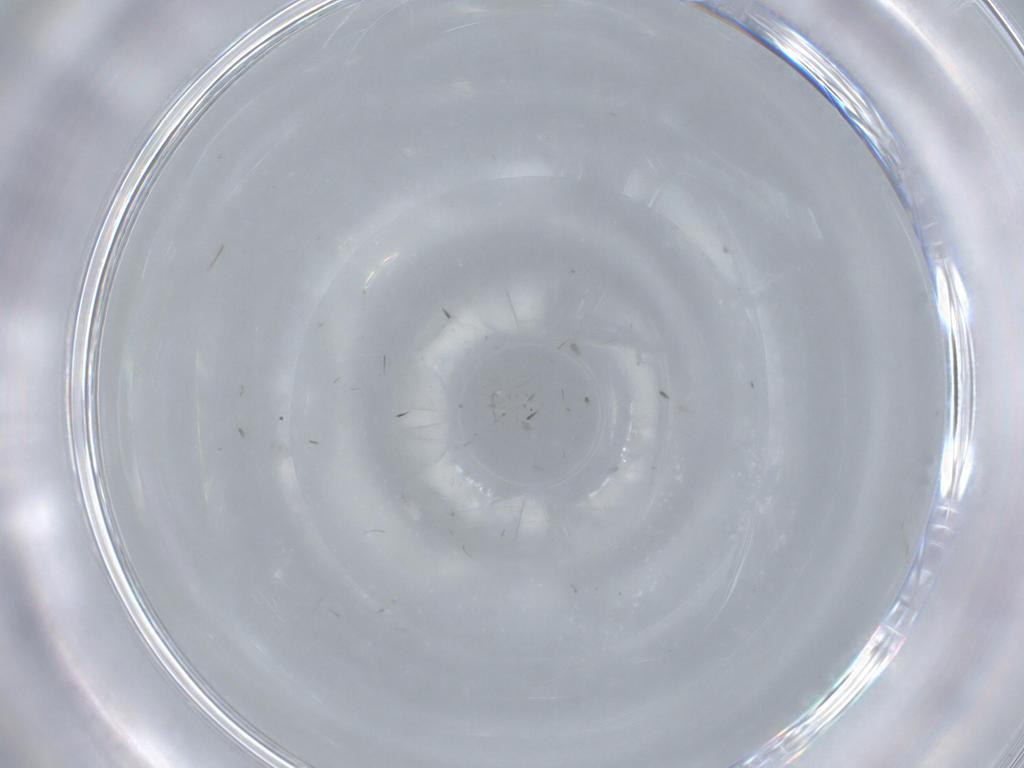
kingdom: Animalia
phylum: Arthropoda
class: Insecta
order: Diptera
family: Cecidomyiidae
